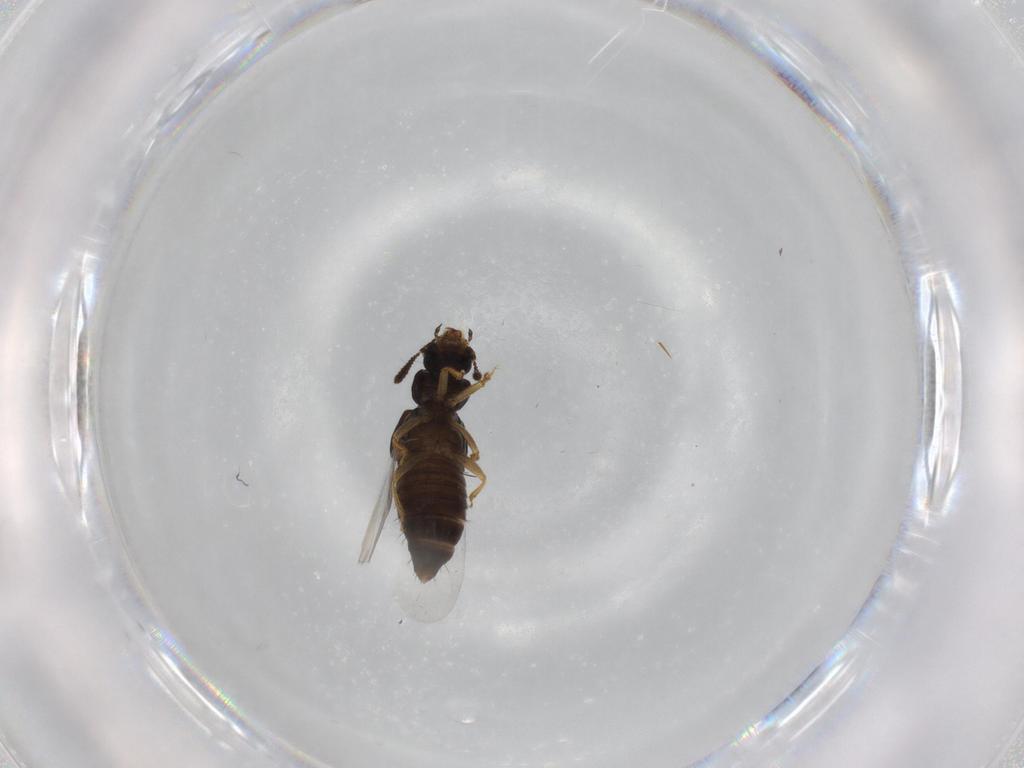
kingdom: Animalia
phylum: Arthropoda
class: Insecta
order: Coleoptera
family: Staphylinidae
